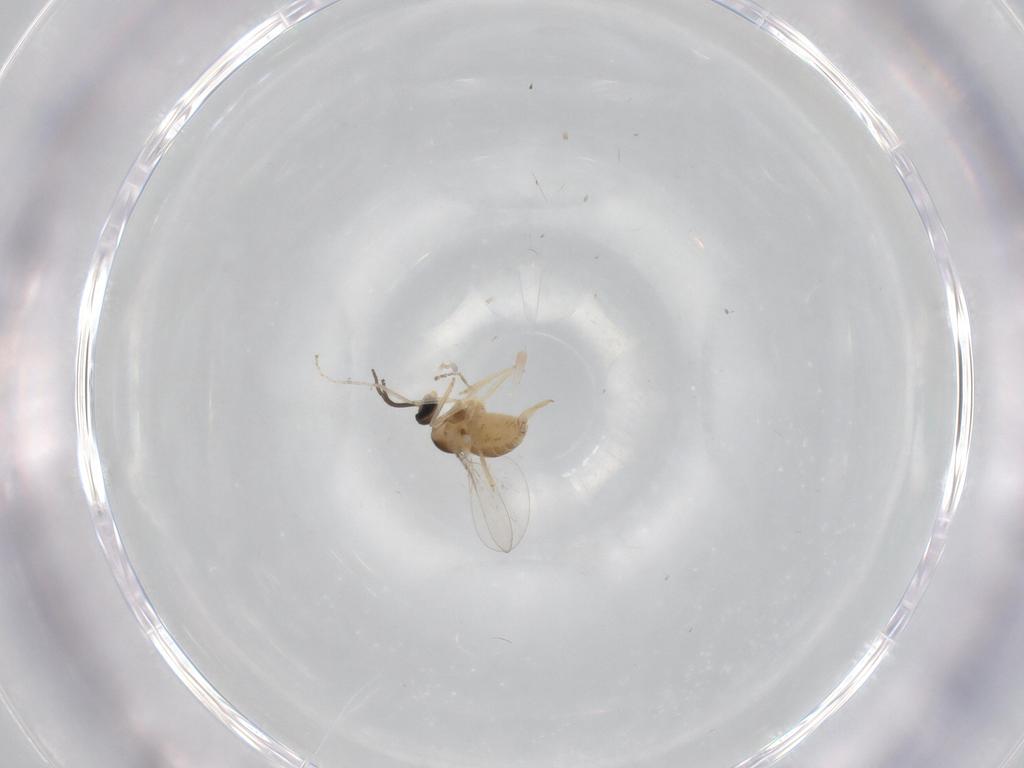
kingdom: Animalia
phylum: Arthropoda
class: Insecta
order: Diptera
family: Cecidomyiidae
